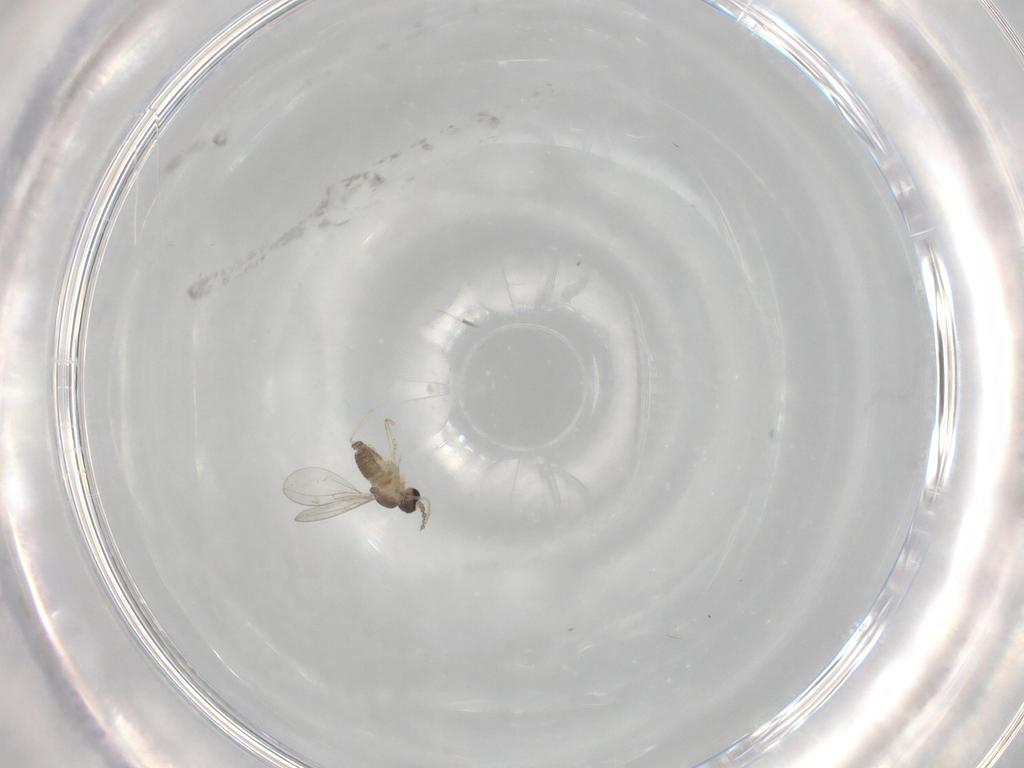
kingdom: Animalia
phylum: Arthropoda
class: Insecta
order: Diptera
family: Cecidomyiidae
